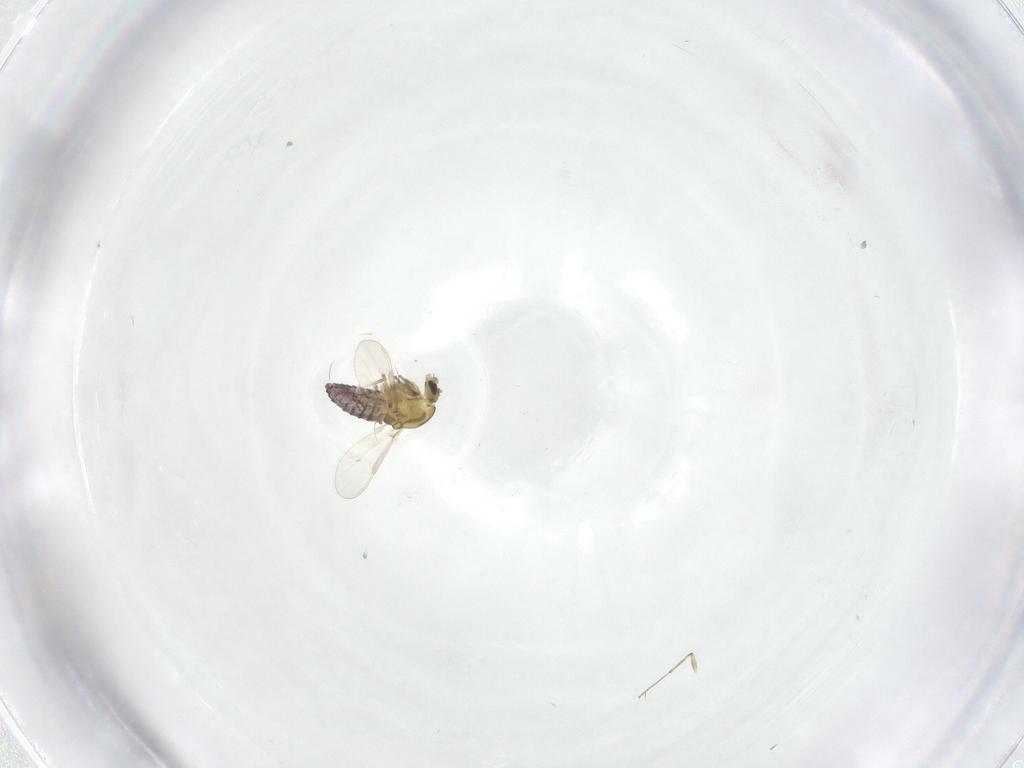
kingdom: Animalia
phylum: Arthropoda
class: Insecta
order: Diptera
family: Chironomidae
